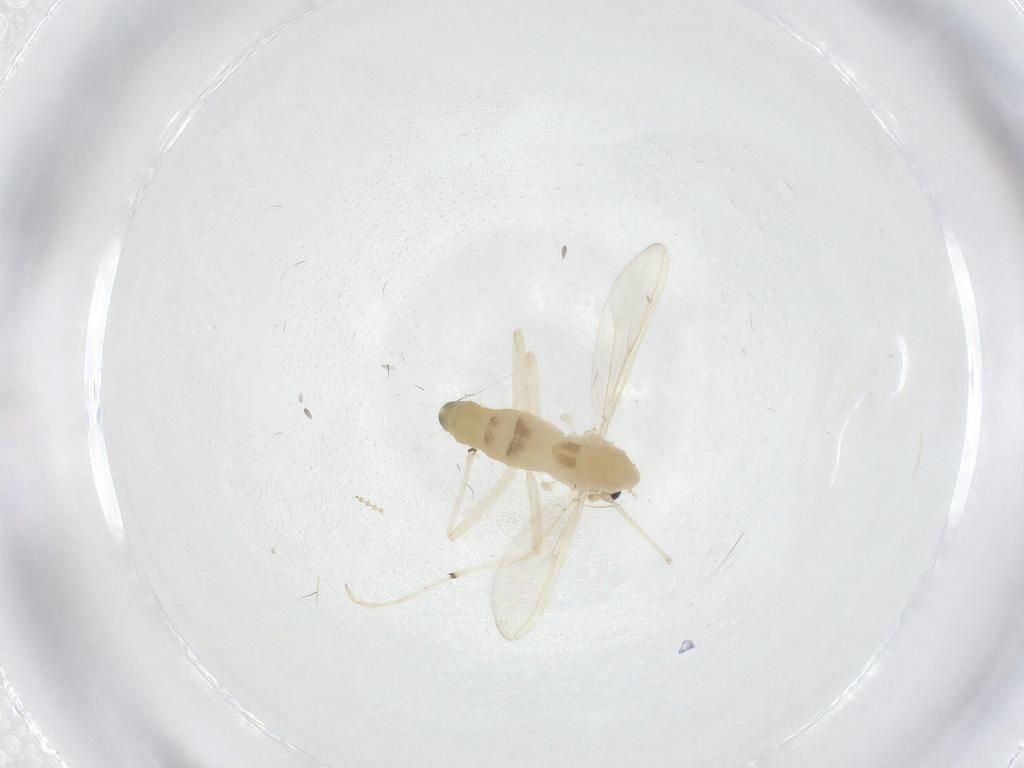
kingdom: Animalia
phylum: Arthropoda
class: Insecta
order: Diptera
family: Chironomidae
